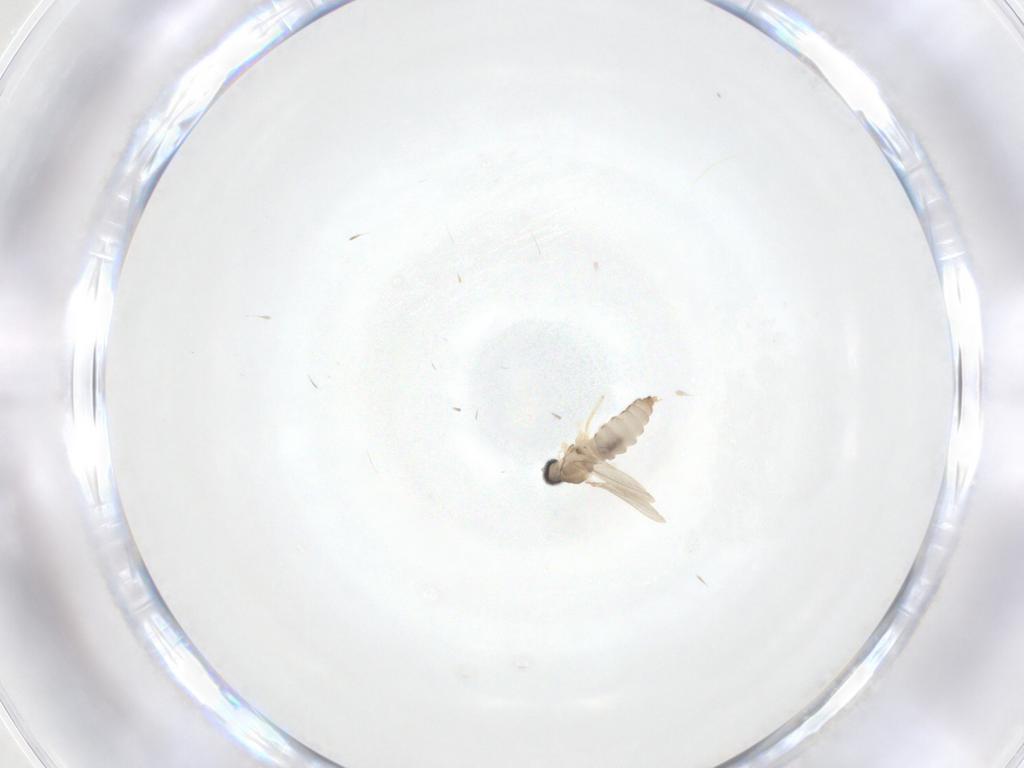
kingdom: Animalia
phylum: Arthropoda
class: Insecta
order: Diptera
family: Cecidomyiidae
